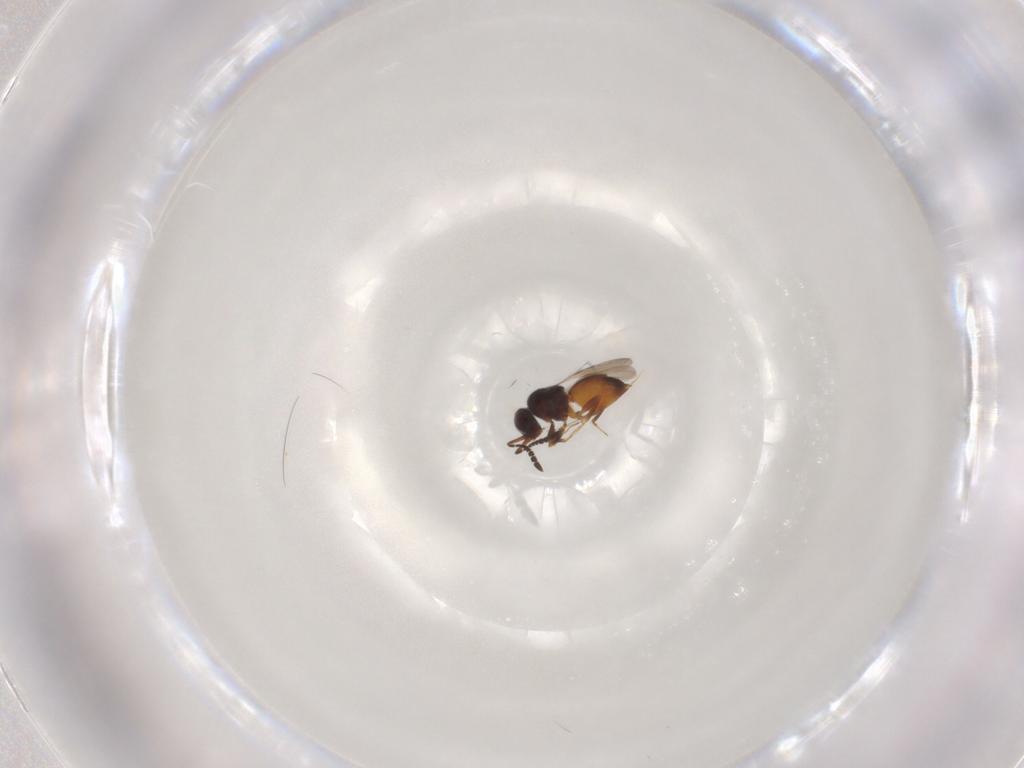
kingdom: Animalia
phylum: Arthropoda
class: Insecta
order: Hymenoptera
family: Ceraphronidae
